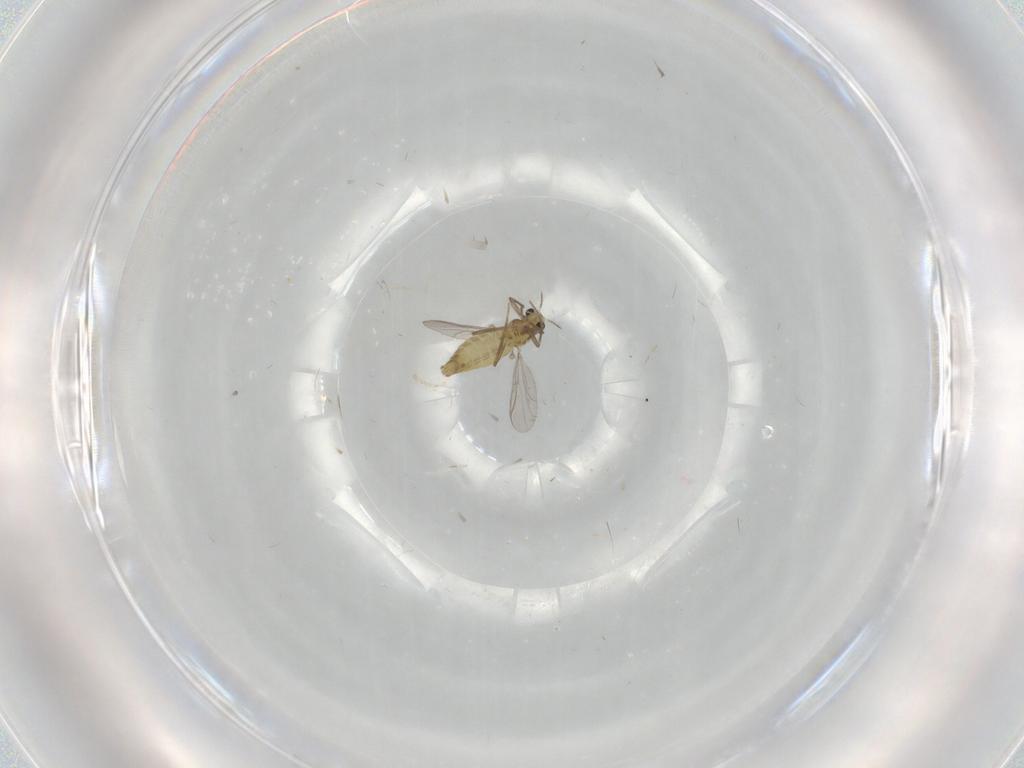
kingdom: Animalia
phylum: Arthropoda
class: Insecta
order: Diptera
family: Chironomidae
